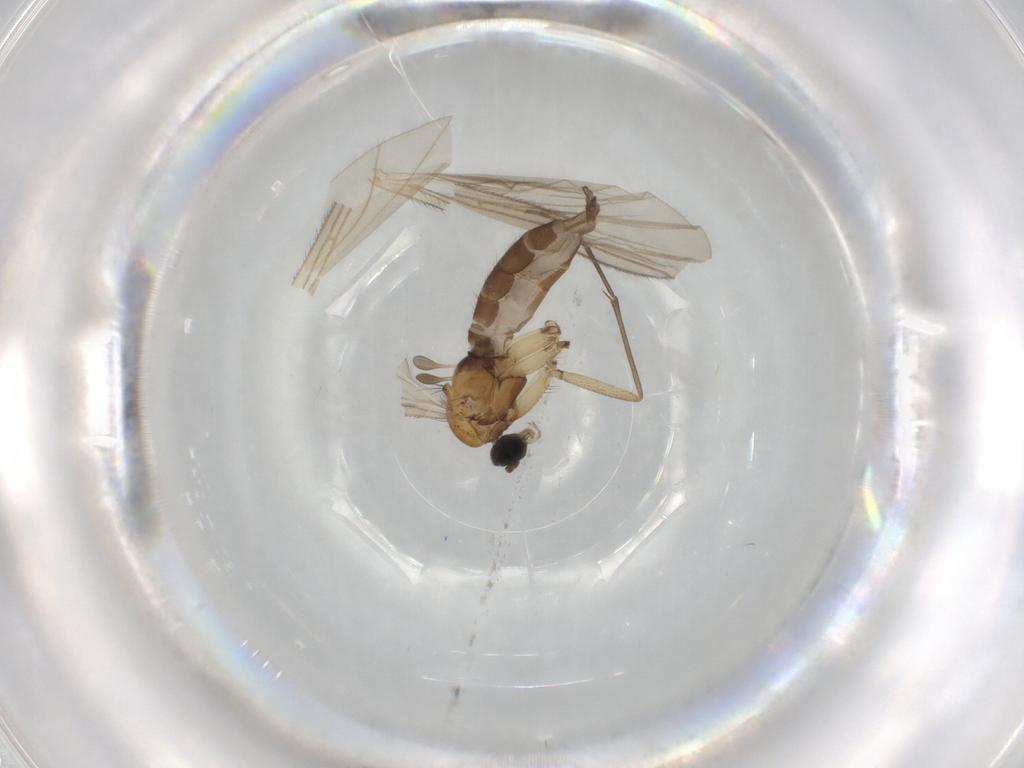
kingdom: Animalia
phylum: Arthropoda
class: Insecta
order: Diptera
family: Sciaridae
